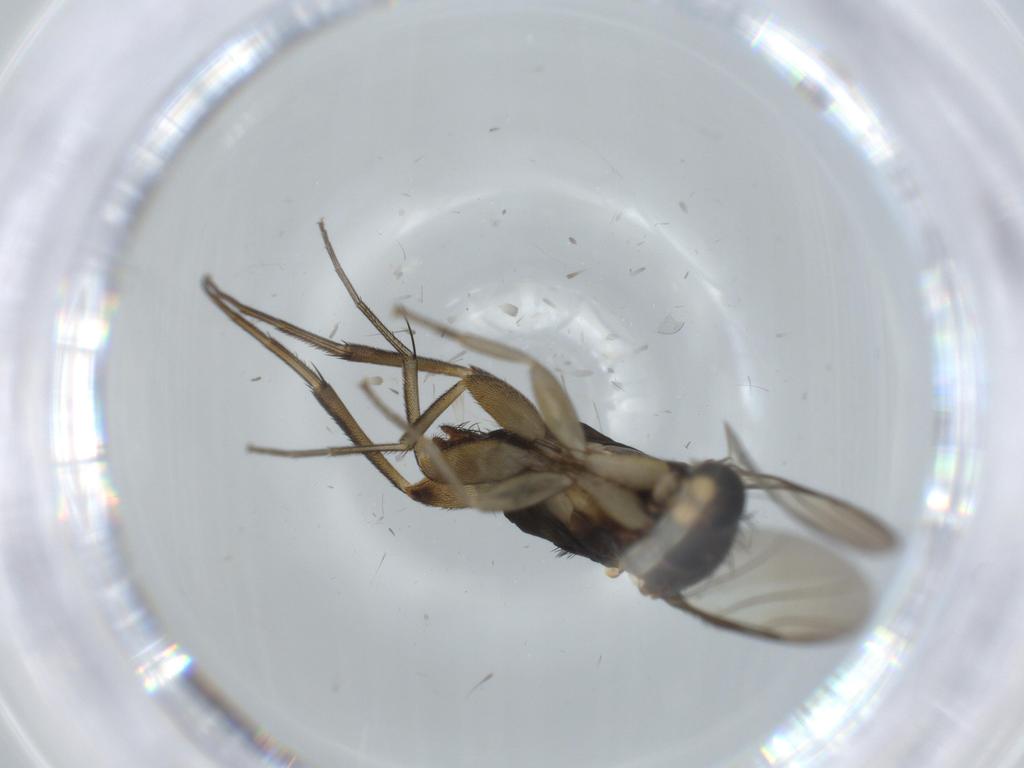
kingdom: Animalia
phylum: Arthropoda
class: Insecta
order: Diptera
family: Phoridae
